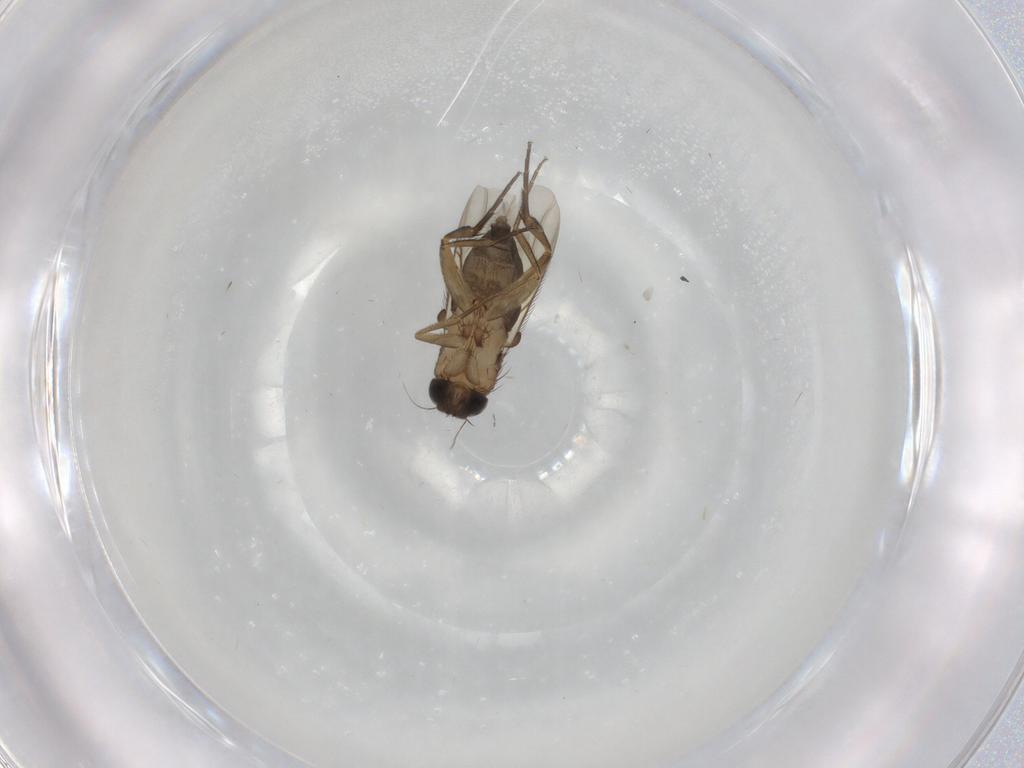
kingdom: Animalia
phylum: Arthropoda
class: Insecta
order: Diptera
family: Phoridae
